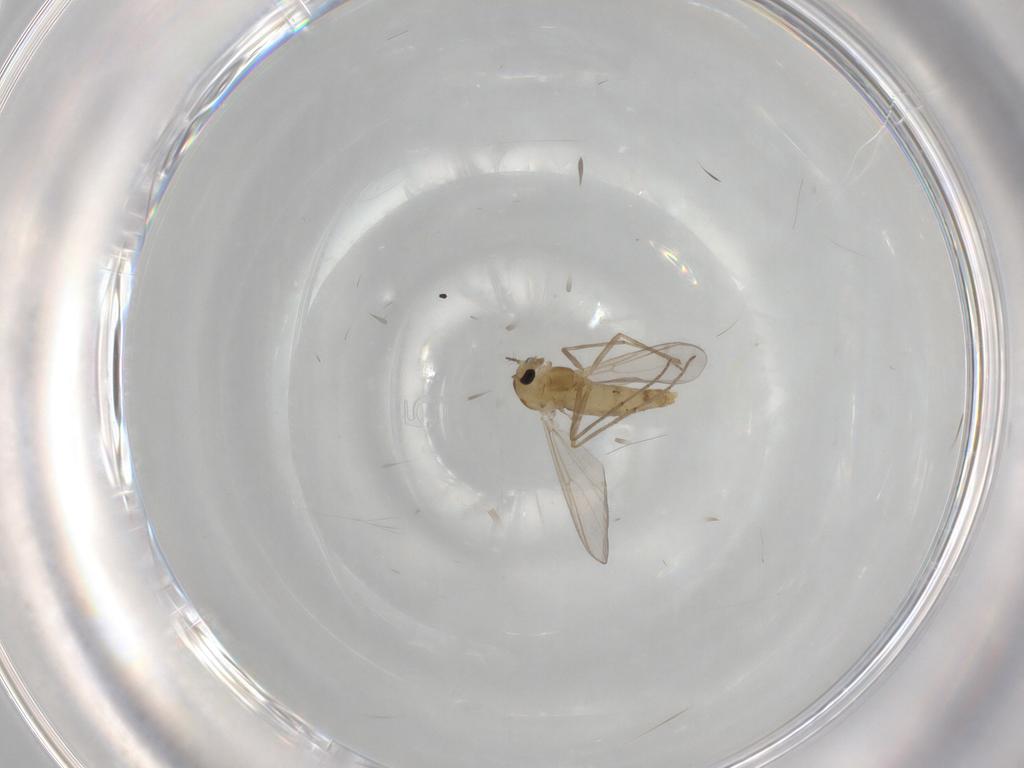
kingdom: Animalia
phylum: Arthropoda
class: Insecta
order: Diptera
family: Chironomidae
